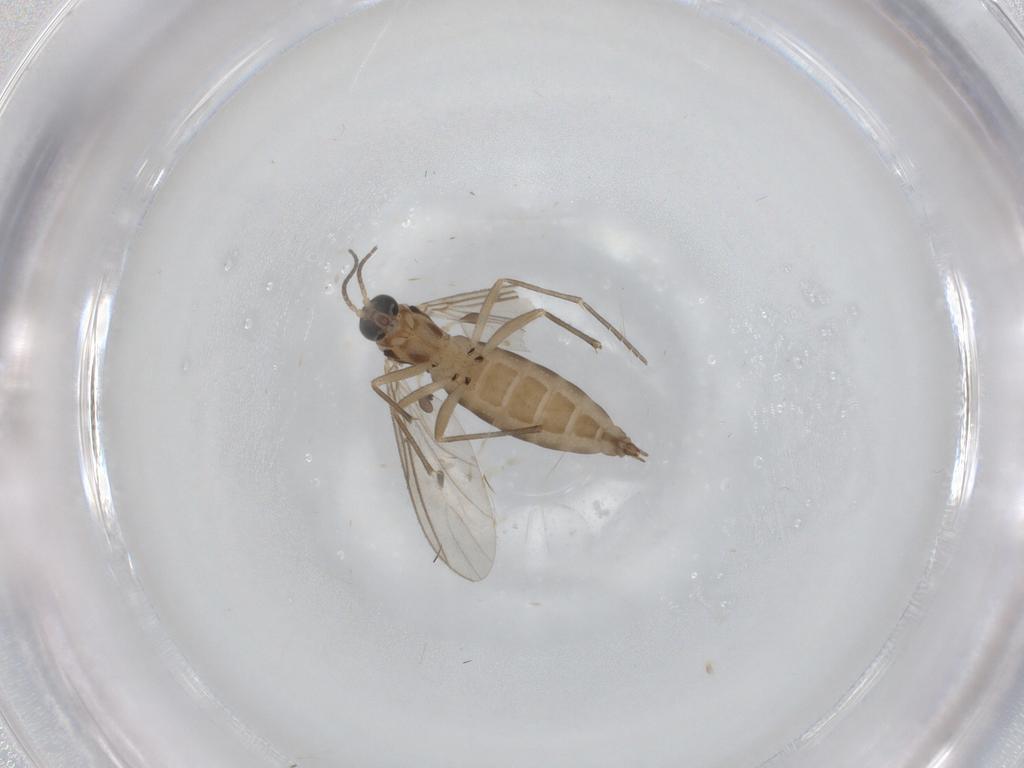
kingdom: Animalia
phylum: Arthropoda
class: Insecta
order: Diptera
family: Sciaridae
